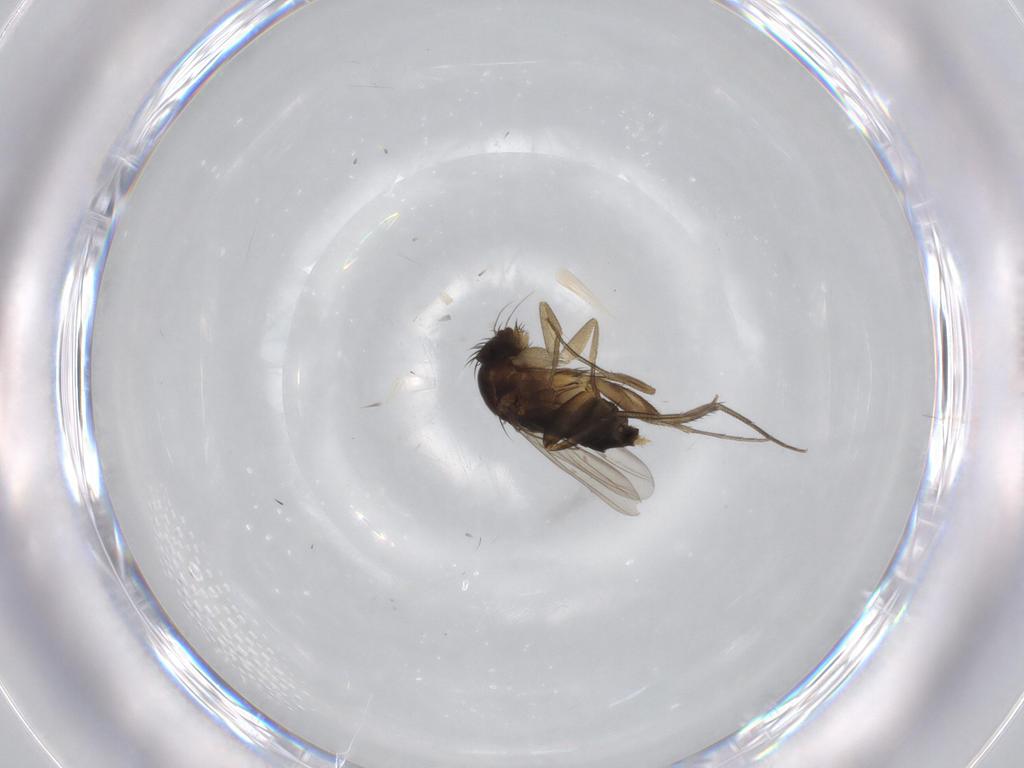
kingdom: Animalia
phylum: Arthropoda
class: Insecta
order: Diptera
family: Phoridae
